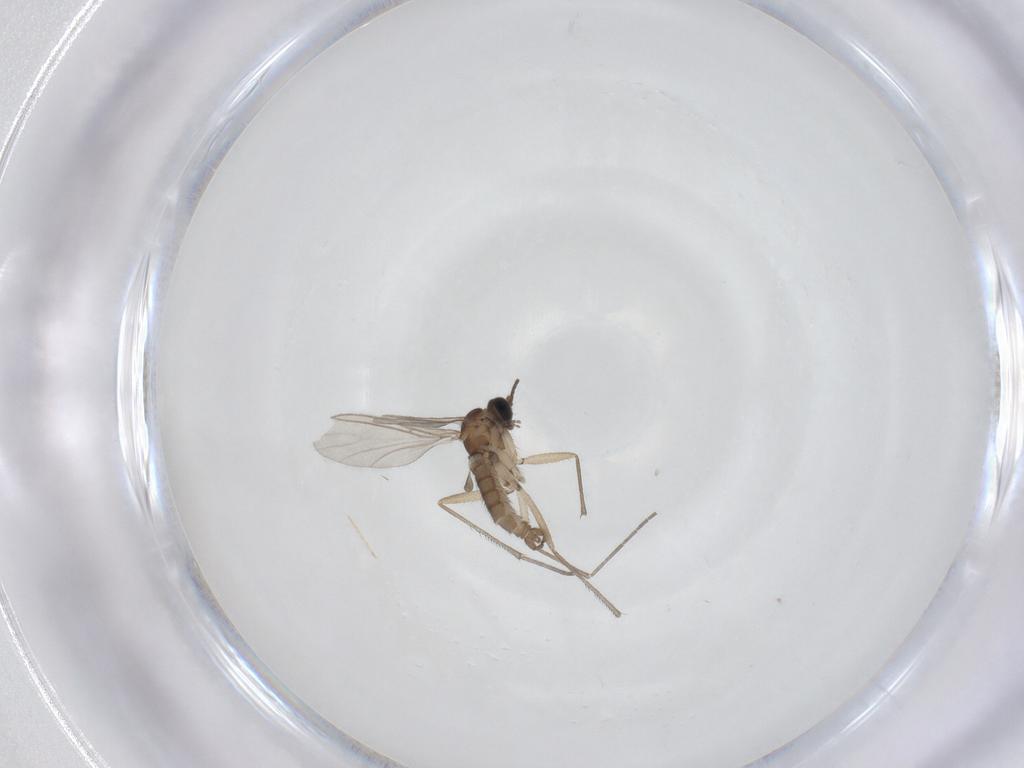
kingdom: Animalia
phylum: Arthropoda
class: Insecta
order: Diptera
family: Sciaridae
